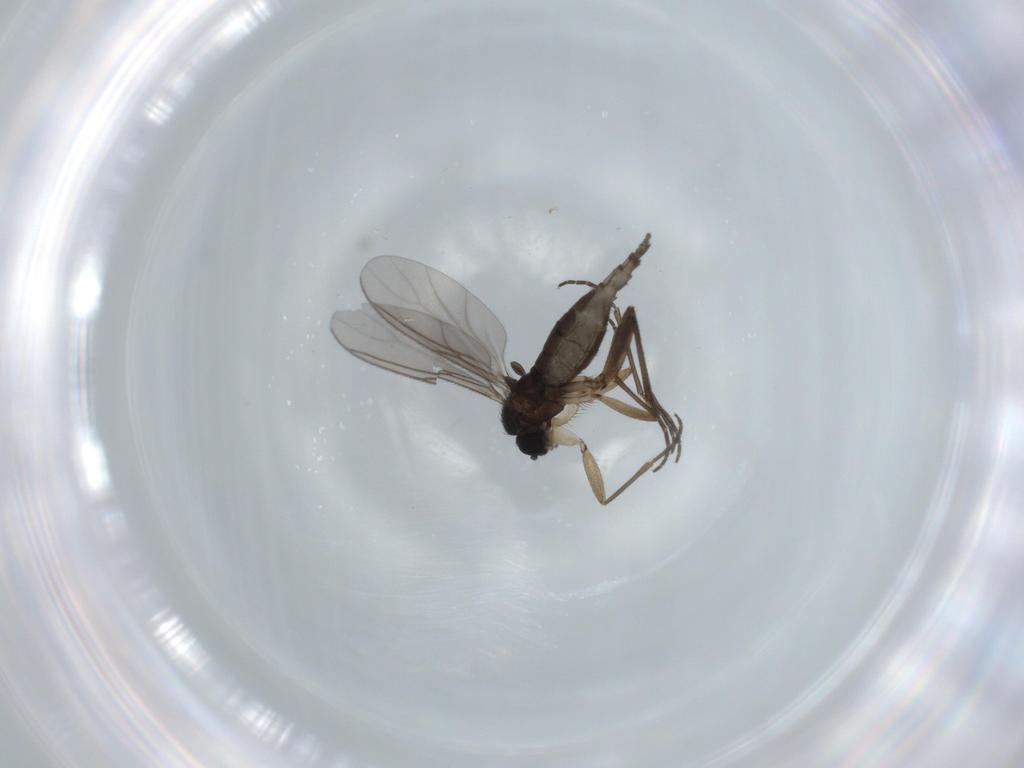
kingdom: Animalia
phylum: Arthropoda
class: Insecta
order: Diptera
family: Sciaridae
